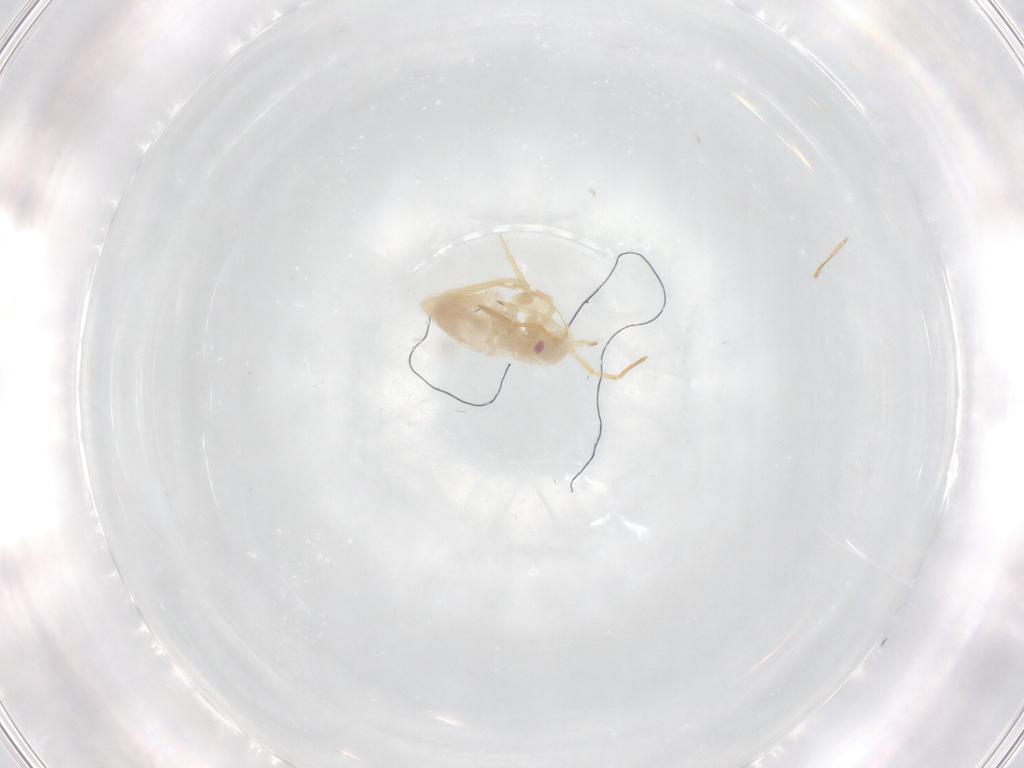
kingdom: Animalia
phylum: Arthropoda
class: Insecta
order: Hemiptera
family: Miridae
